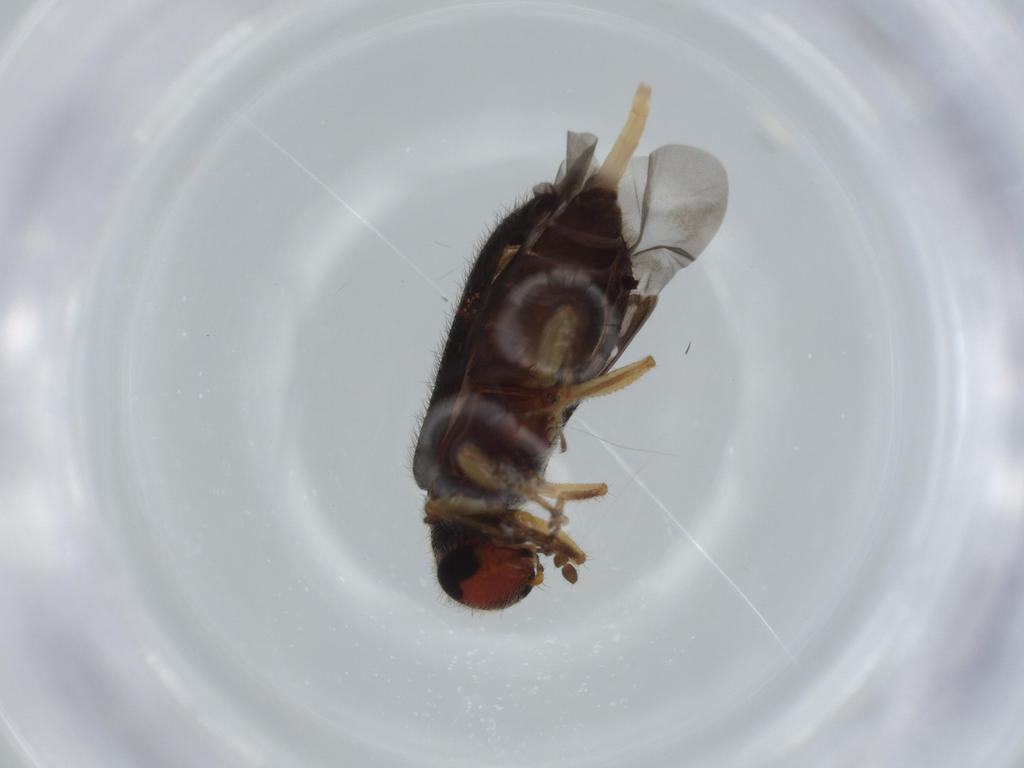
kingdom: Animalia
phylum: Arthropoda
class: Insecta
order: Coleoptera
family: Cleridae
